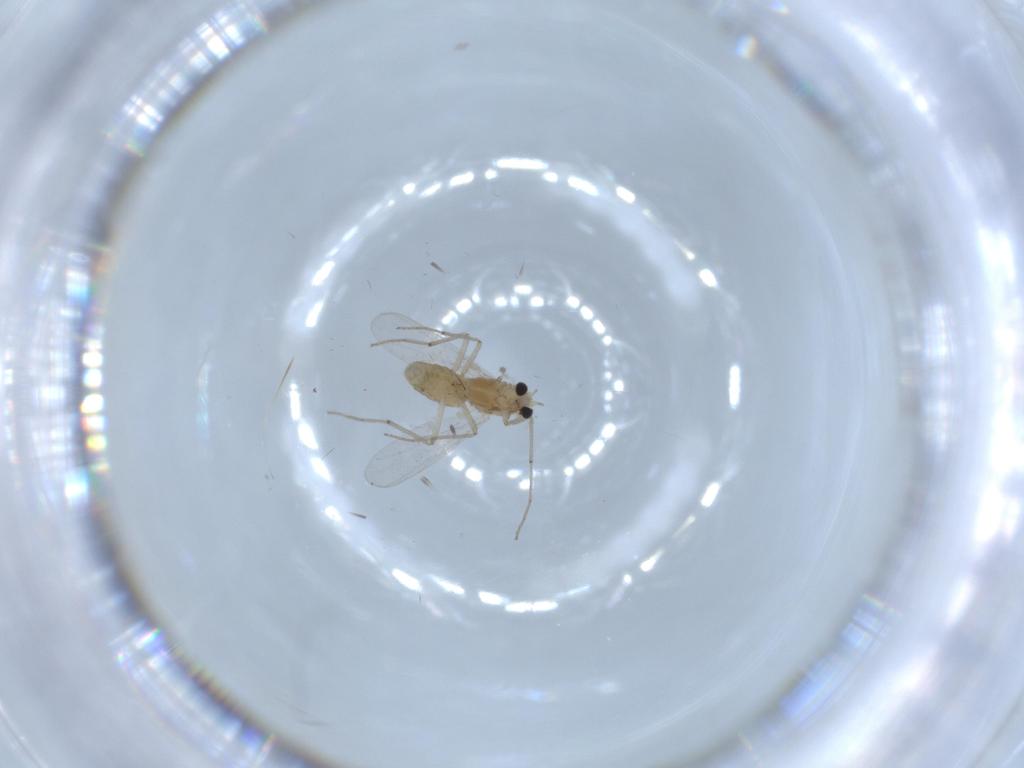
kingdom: Animalia
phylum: Arthropoda
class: Insecta
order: Diptera
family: Chironomidae
